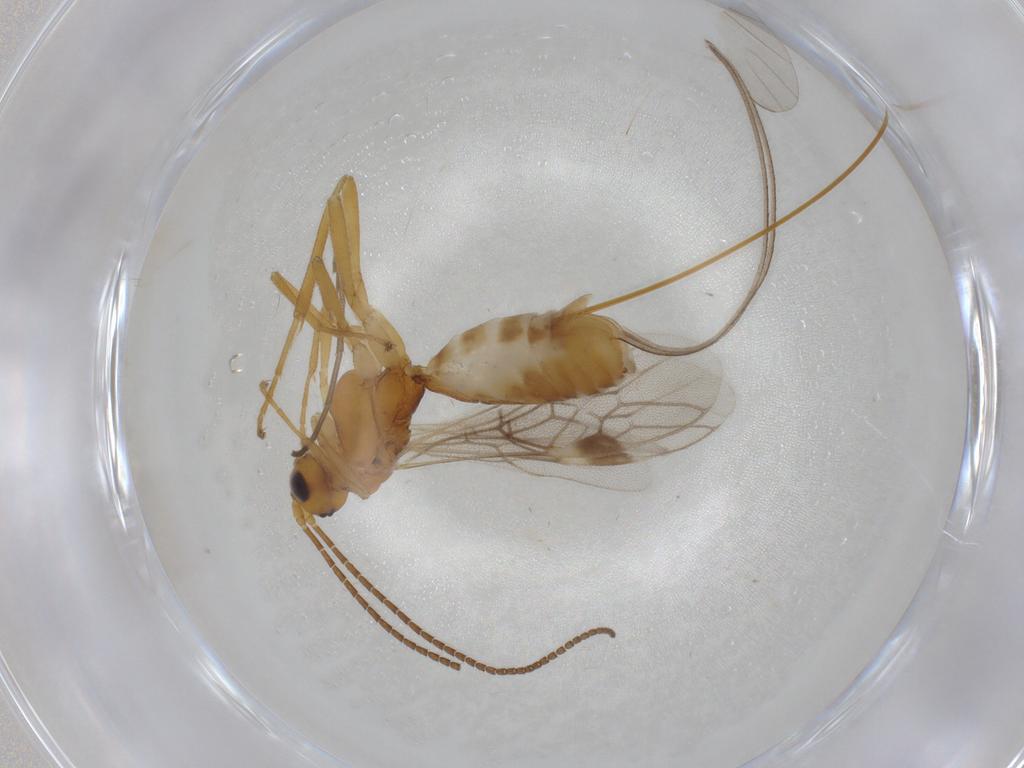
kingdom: Animalia
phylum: Arthropoda
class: Insecta
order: Hymenoptera
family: Braconidae
